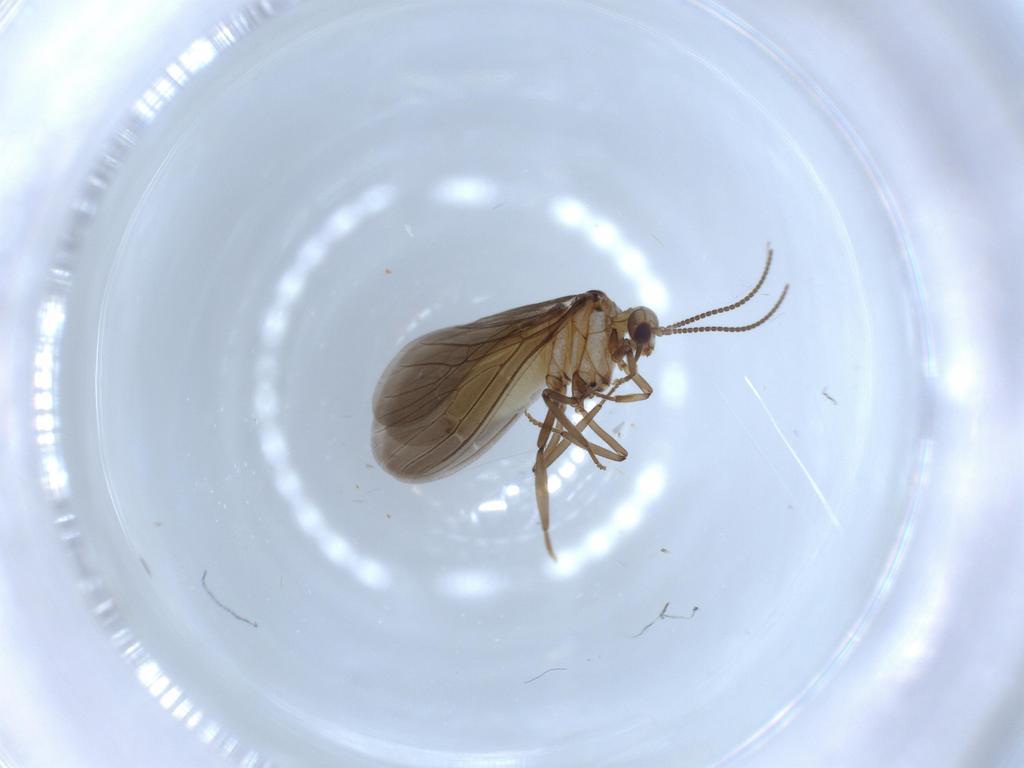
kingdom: Animalia
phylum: Arthropoda
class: Insecta
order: Neuroptera
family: Coniopterygidae
